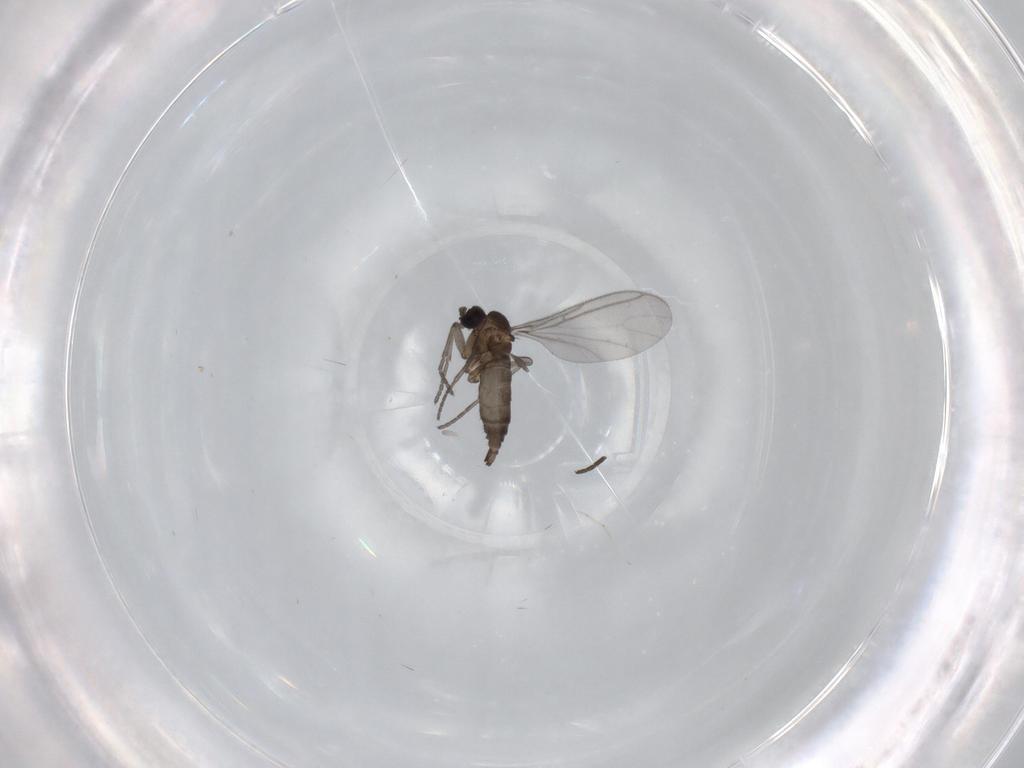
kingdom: Animalia
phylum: Arthropoda
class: Insecta
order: Diptera
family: Sciaridae
